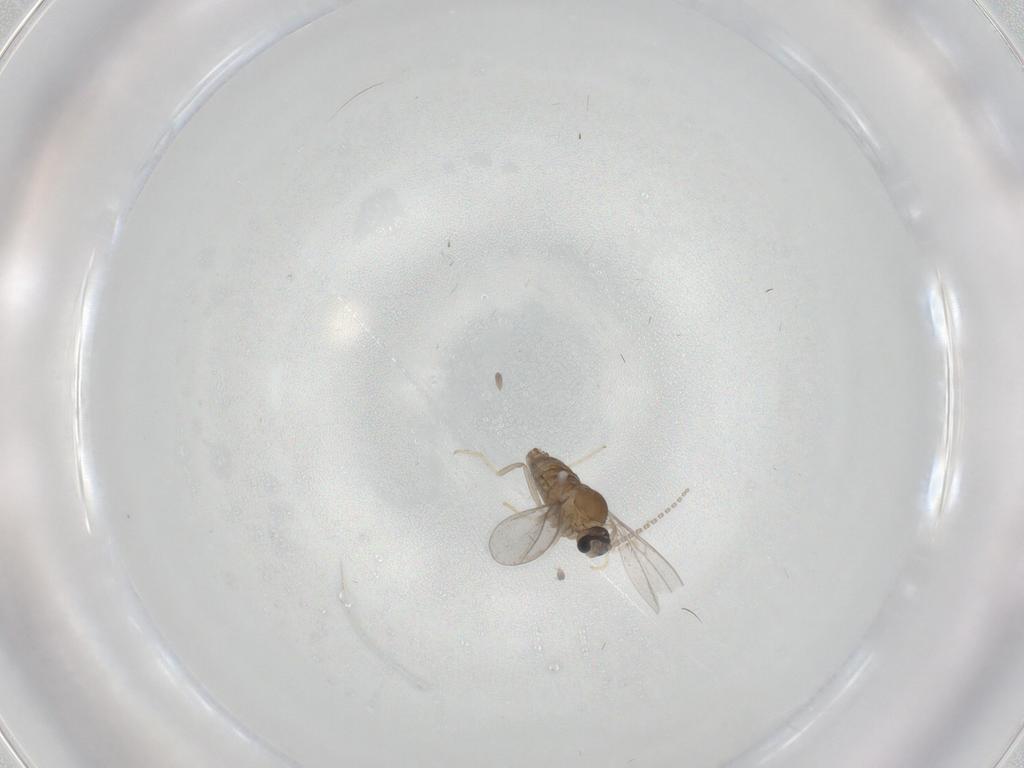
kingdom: Animalia
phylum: Arthropoda
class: Insecta
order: Diptera
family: Cecidomyiidae
